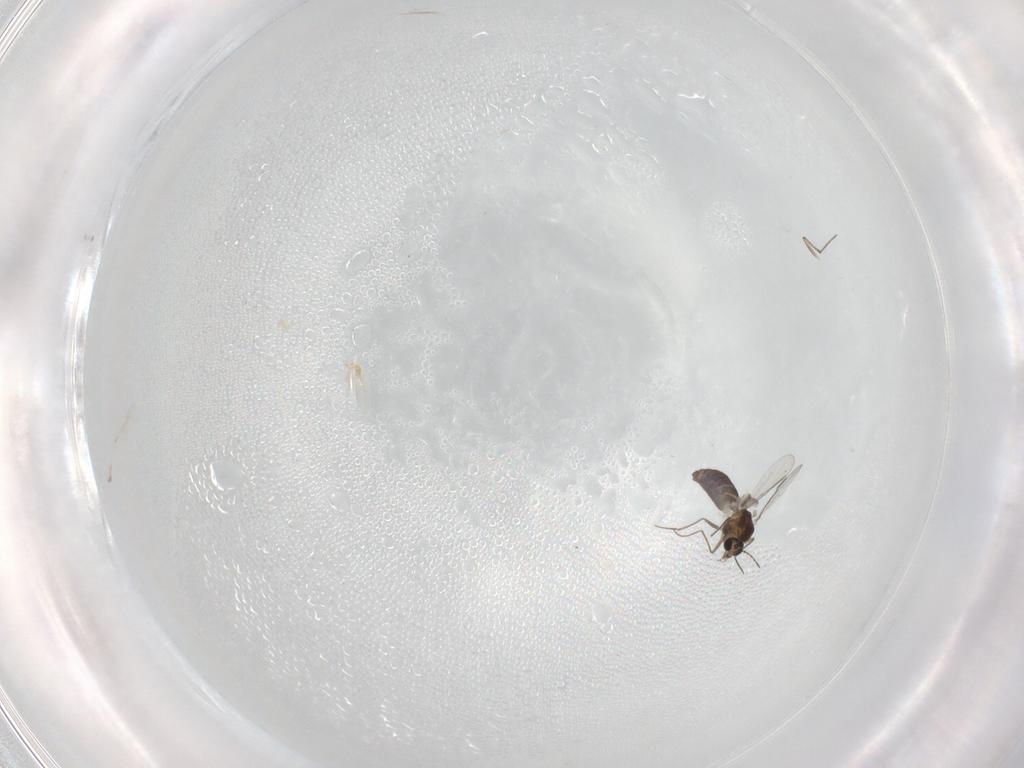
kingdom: Animalia
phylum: Arthropoda
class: Insecta
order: Diptera
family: Chironomidae
